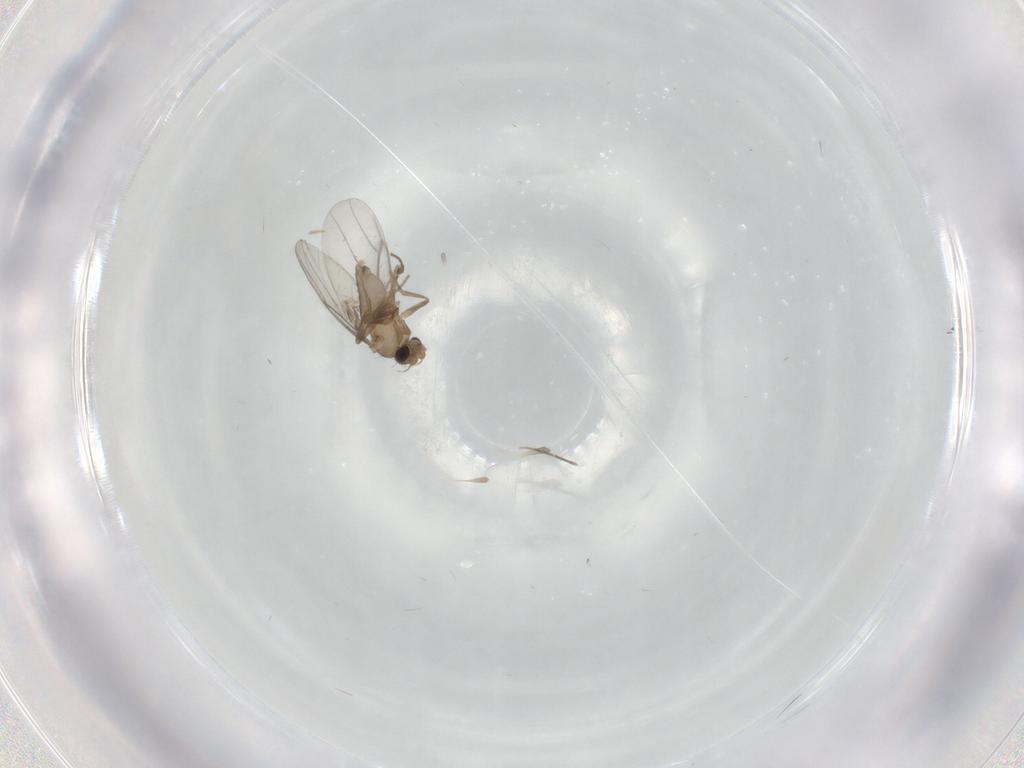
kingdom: Animalia
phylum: Arthropoda
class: Insecta
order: Diptera
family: Phoridae
